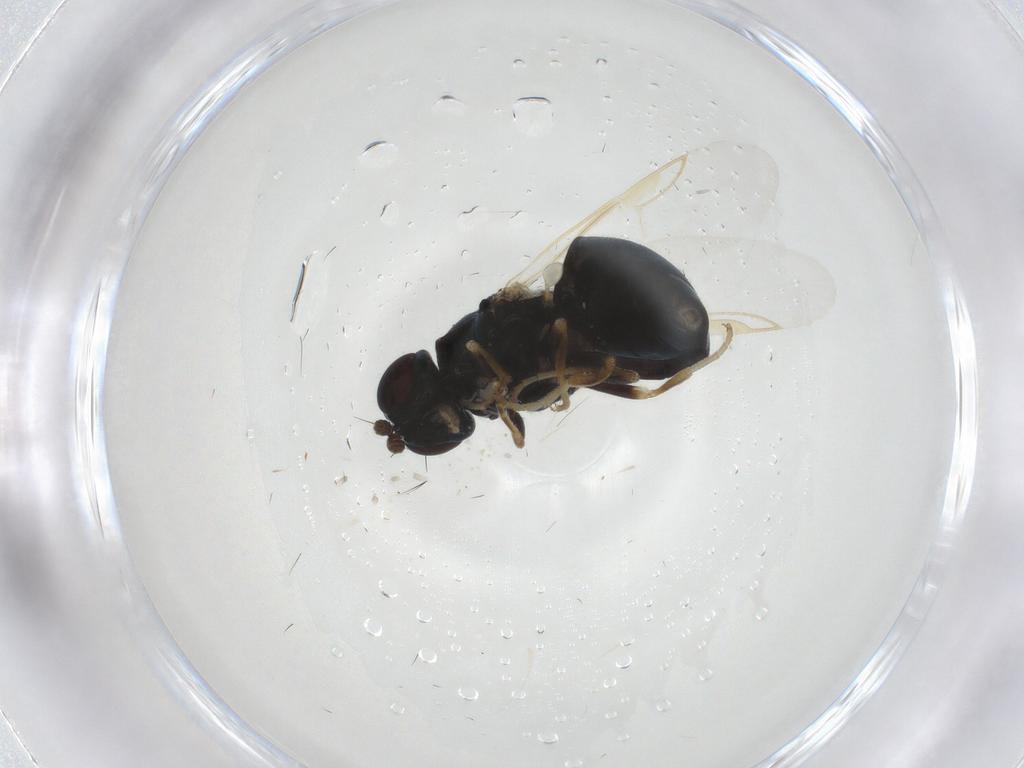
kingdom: Animalia
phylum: Arthropoda
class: Insecta
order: Diptera
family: Stratiomyidae
